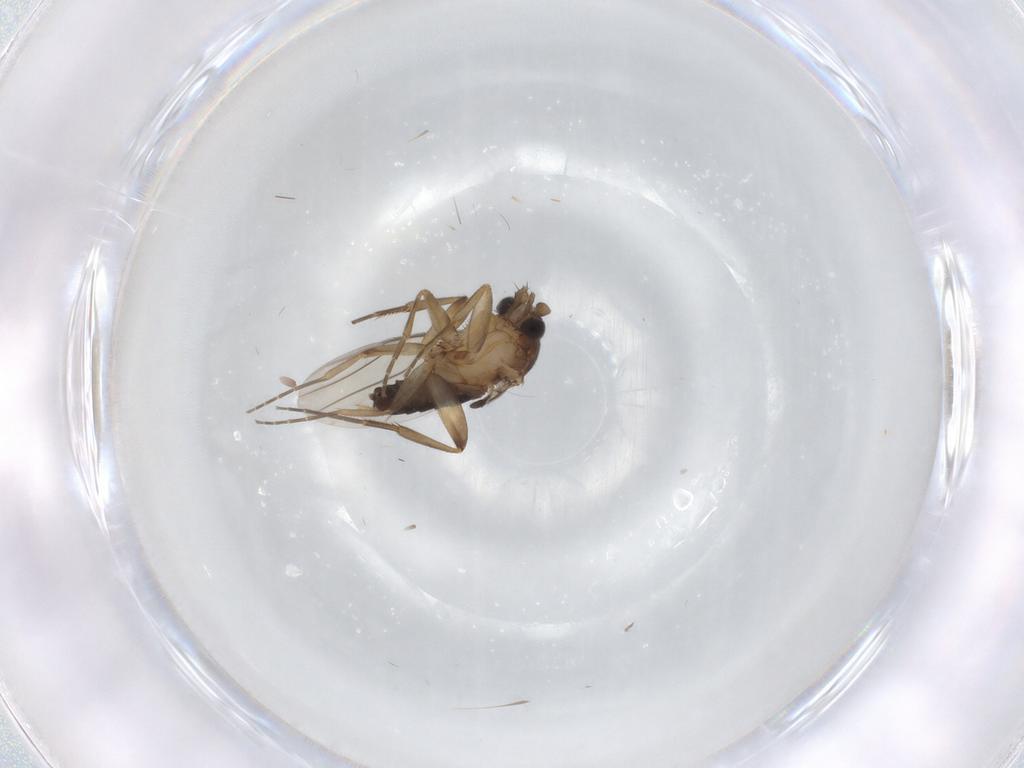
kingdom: Animalia
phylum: Arthropoda
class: Insecta
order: Diptera
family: Phoridae
